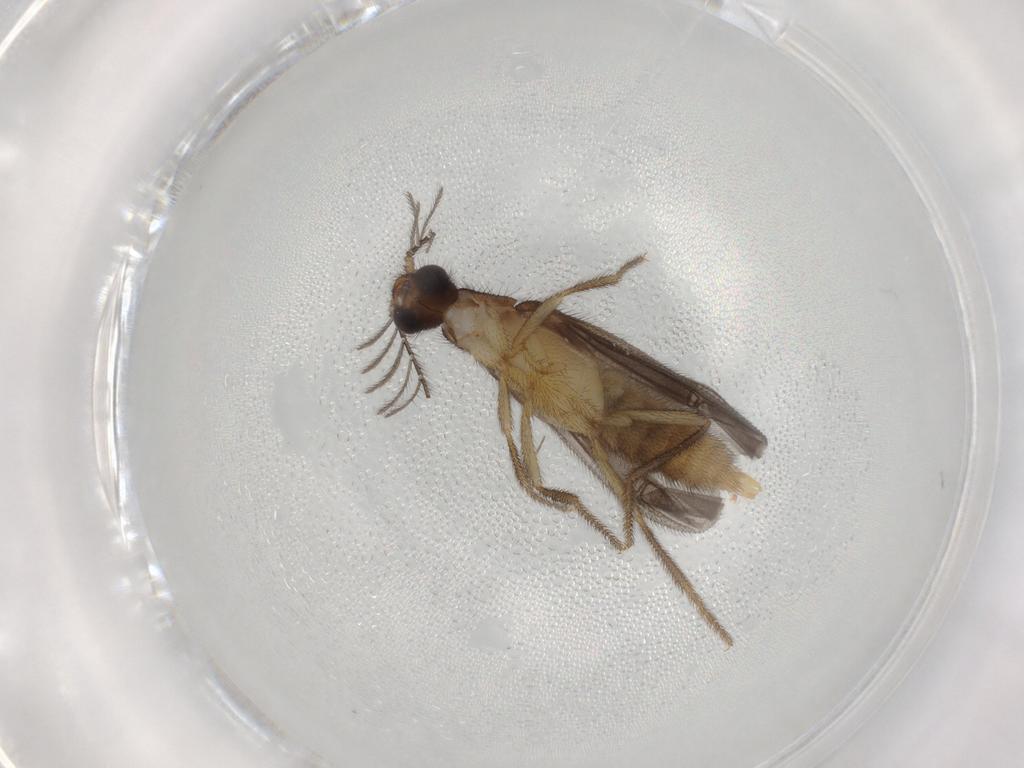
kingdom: Animalia
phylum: Arthropoda
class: Insecta
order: Coleoptera
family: Phengodidae
